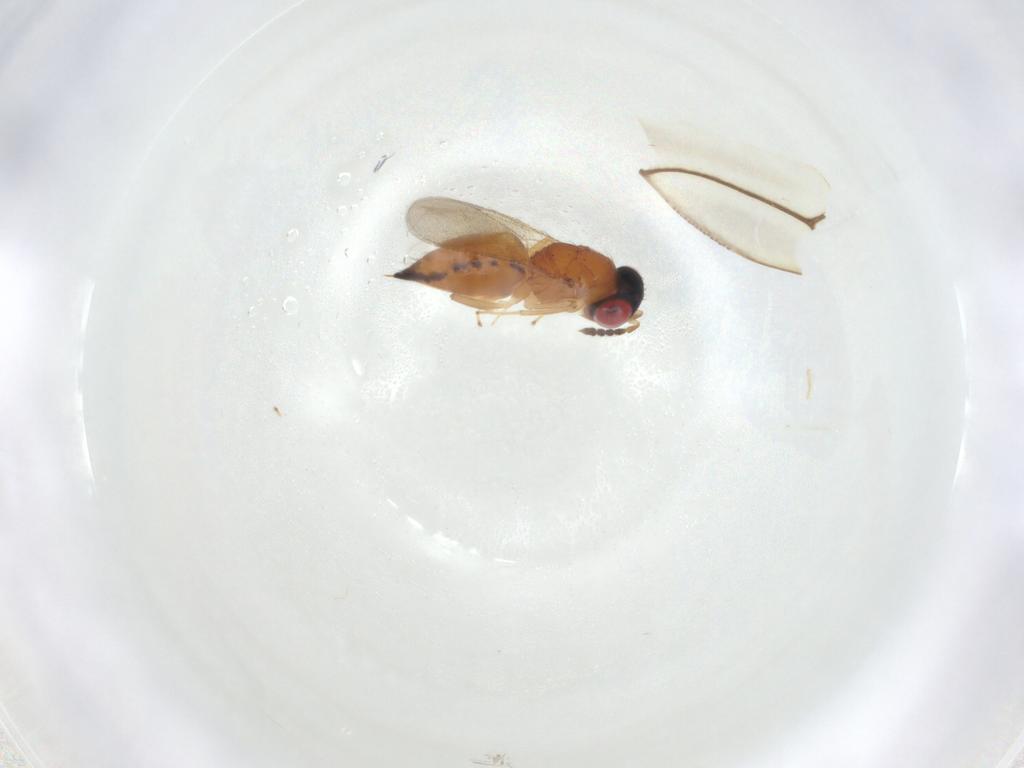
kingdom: Animalia
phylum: Arthropoda
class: Insecta
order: Hymenoptera
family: Eulophidae
